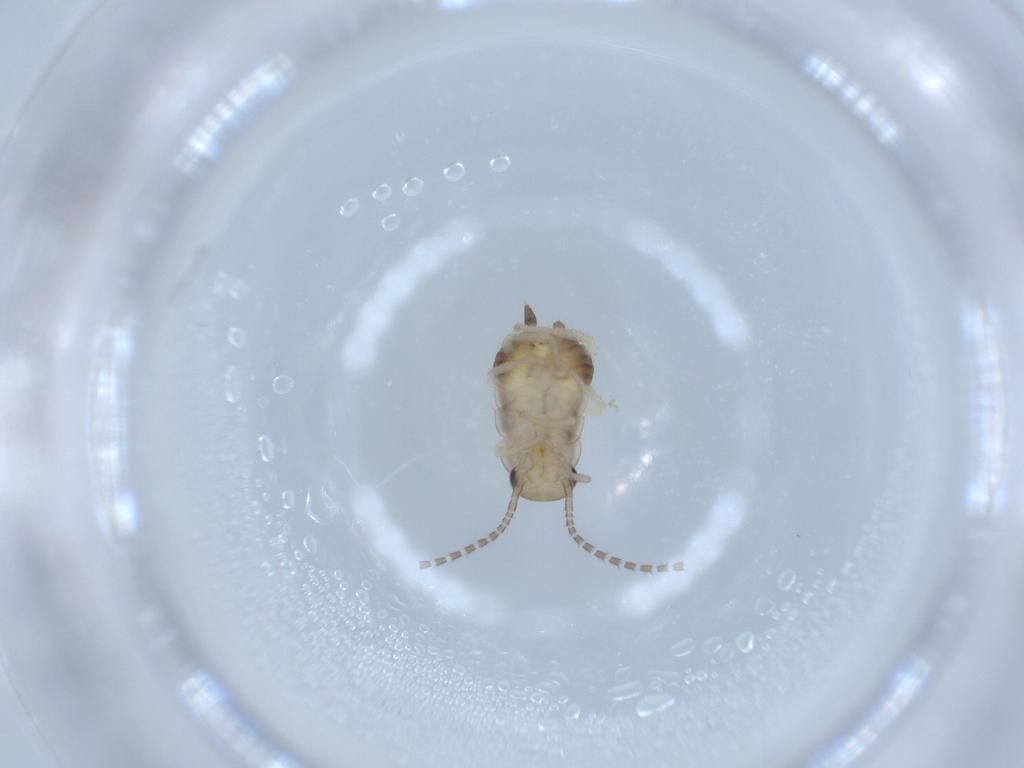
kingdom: Animalia
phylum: Arthropoda
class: Insecta
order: Blattodea
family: Ectobiidae
